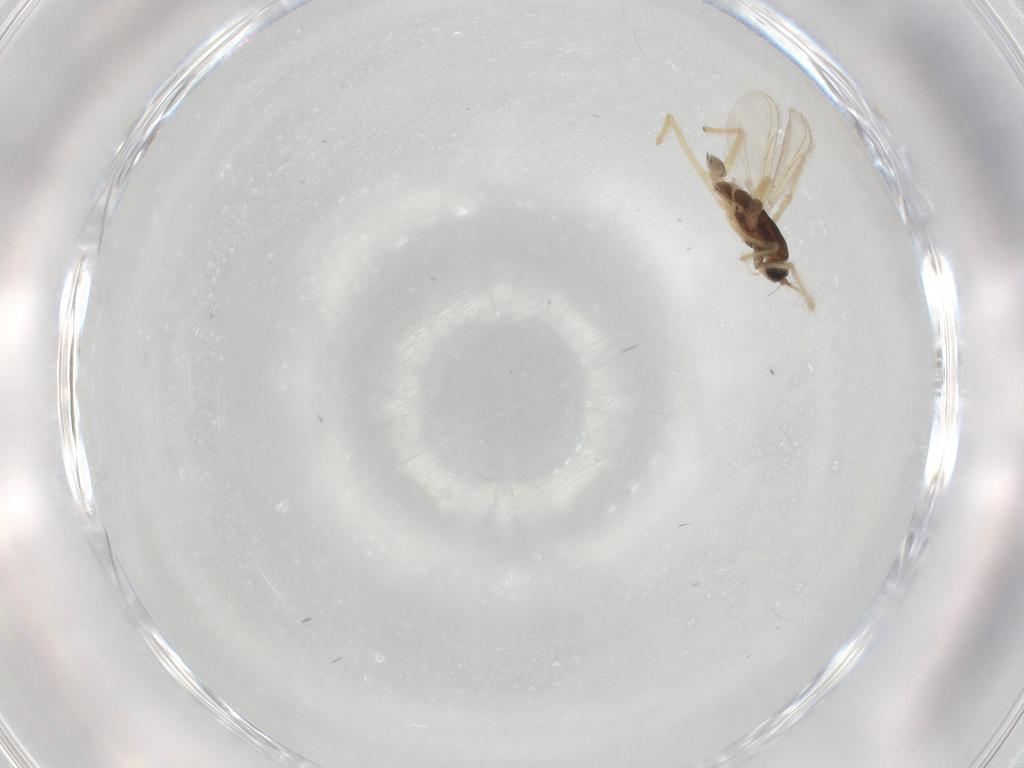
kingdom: Animalia
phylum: Arthropoda
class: Insecta
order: Diptera
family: Chironomidae
